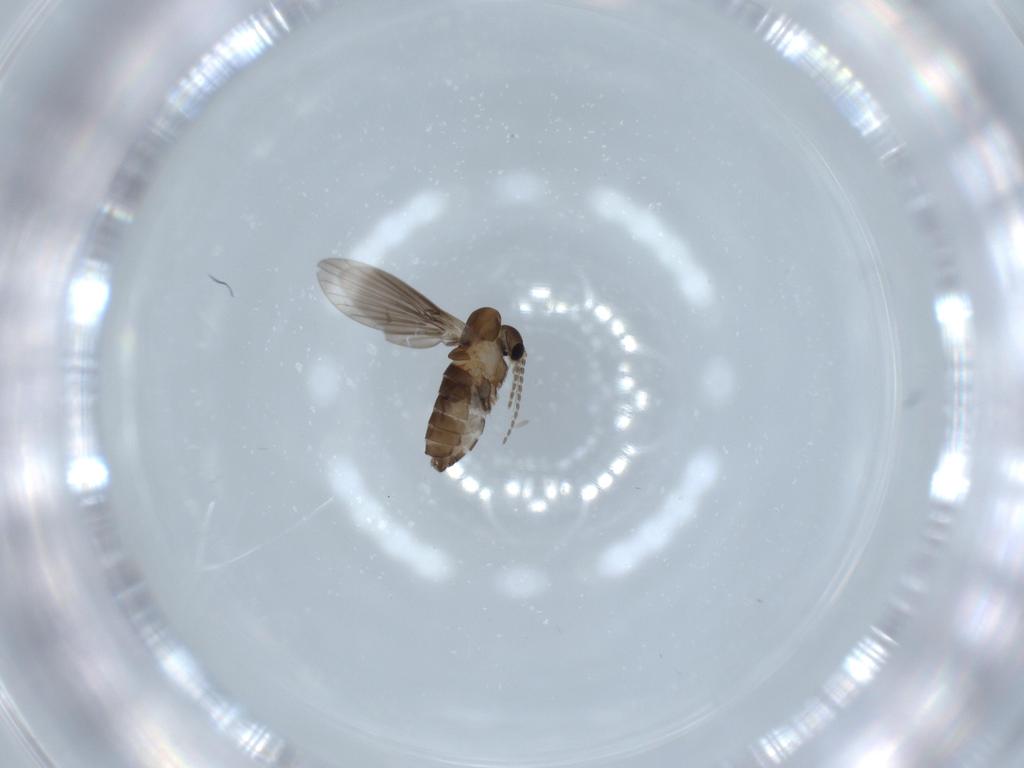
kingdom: Animalia
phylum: Arthropoda
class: Insecta
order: Diptera
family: Psychodidae
